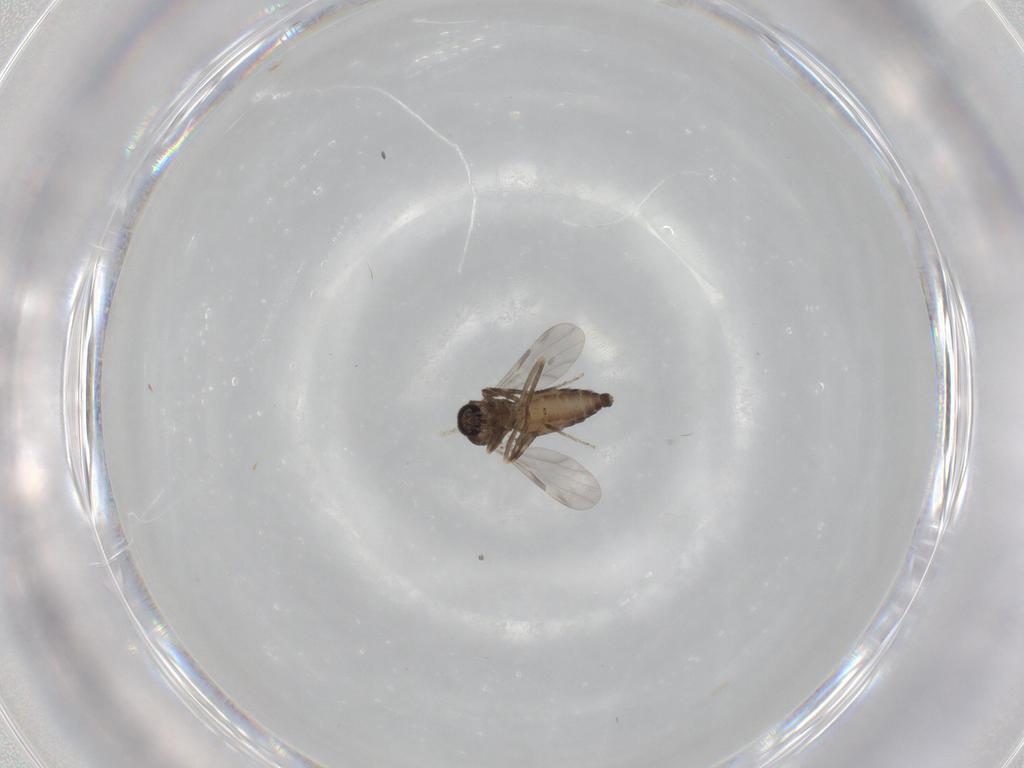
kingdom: Animalia
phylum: Arthropoda
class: Insecta
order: Diptera
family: Ceratopogonidae
